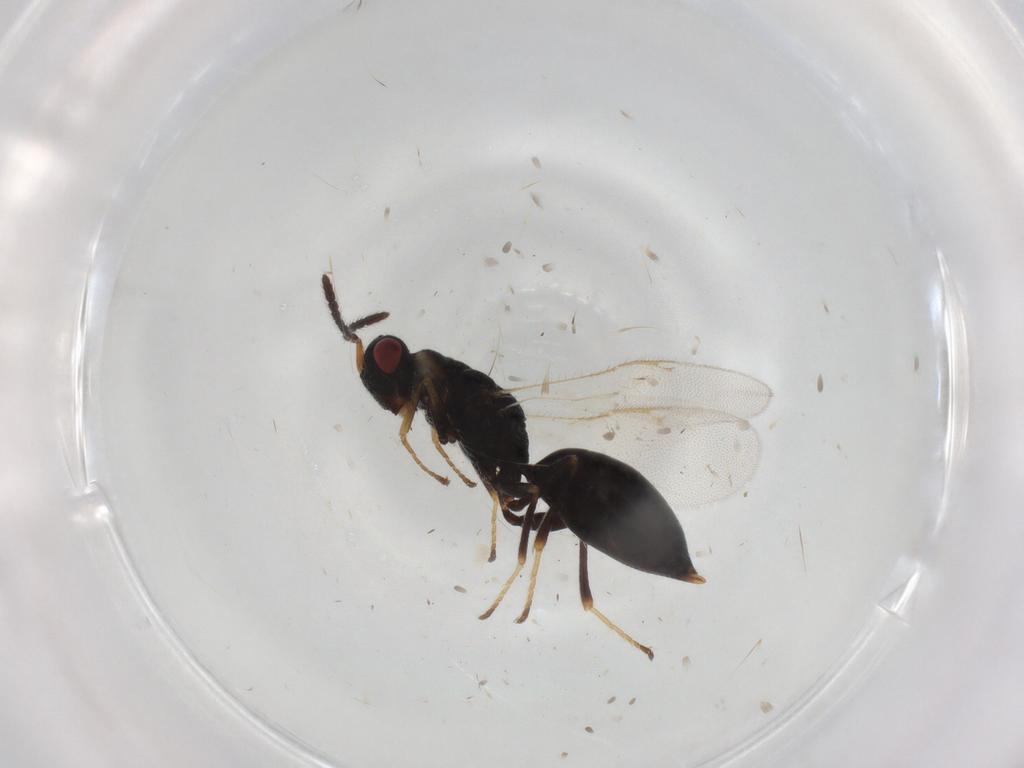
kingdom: Animalia
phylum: Arthropoda
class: Insecta
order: Hymenoptera
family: Eurytomidae
